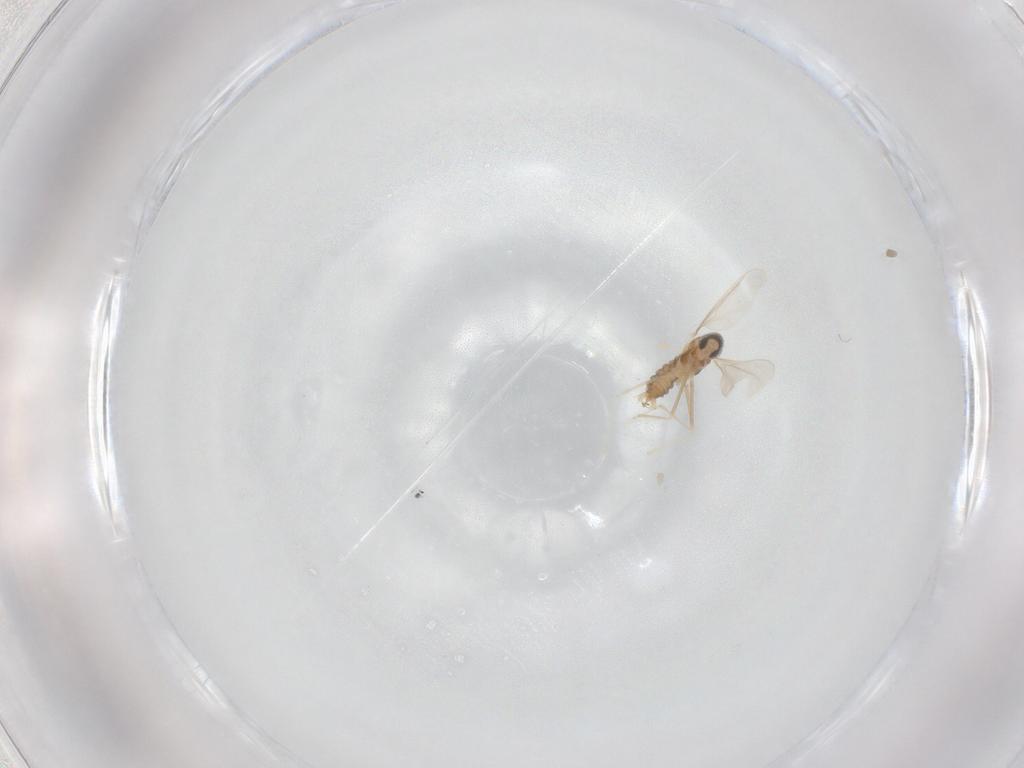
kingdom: Animalia
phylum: Arthropoda
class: Insecta
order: Diptera
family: Cecidomyiidae
